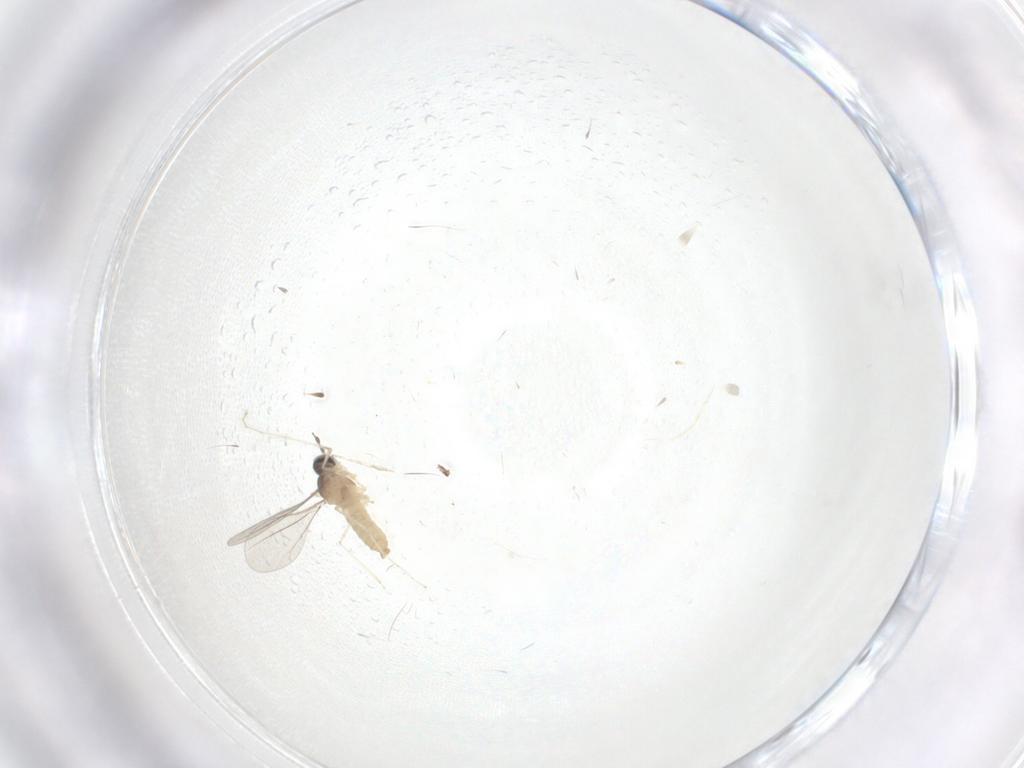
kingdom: Animalia
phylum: Arthropoda
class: Insecta
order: Diptera
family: Cecidomyiidae
